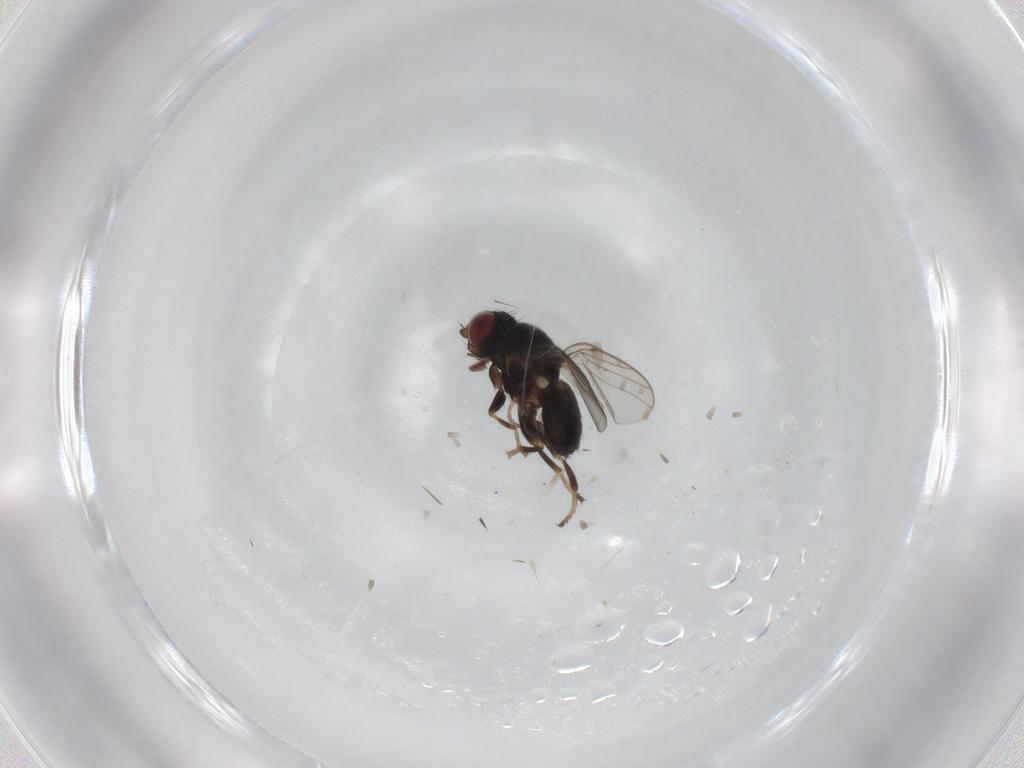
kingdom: Animalia
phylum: Arthropoda
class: Insecta
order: Diptera
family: Chloropidae
